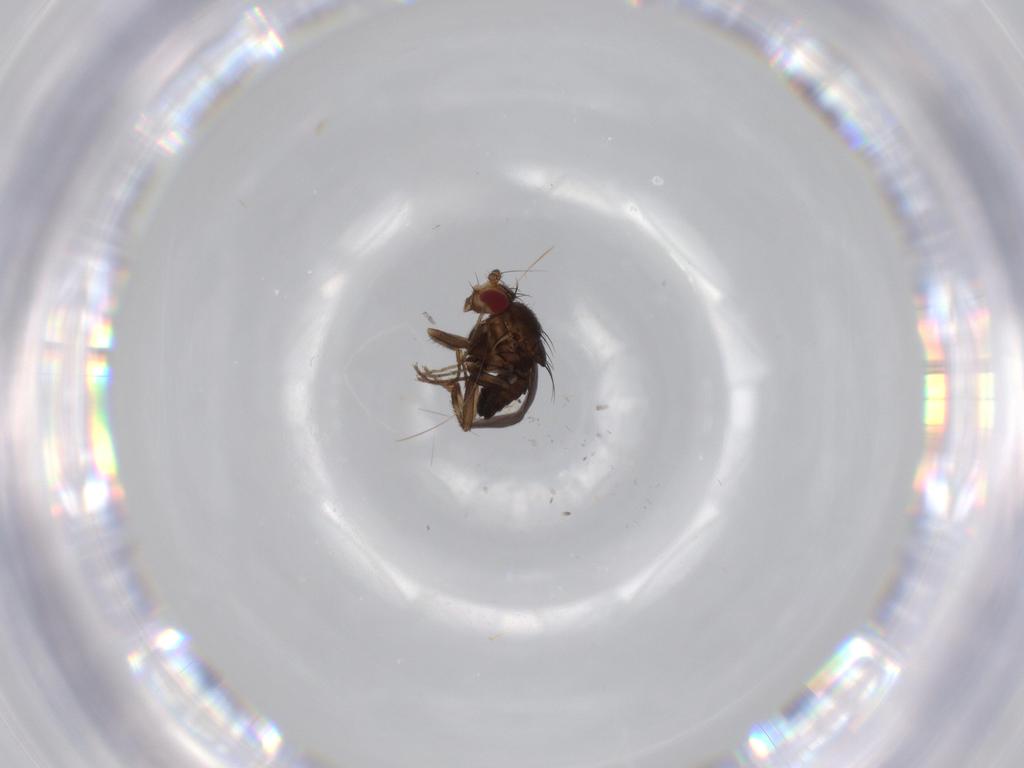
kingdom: Animalia
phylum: Arthropoda
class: Insecta
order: Diptera
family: Sphaeroceridae
